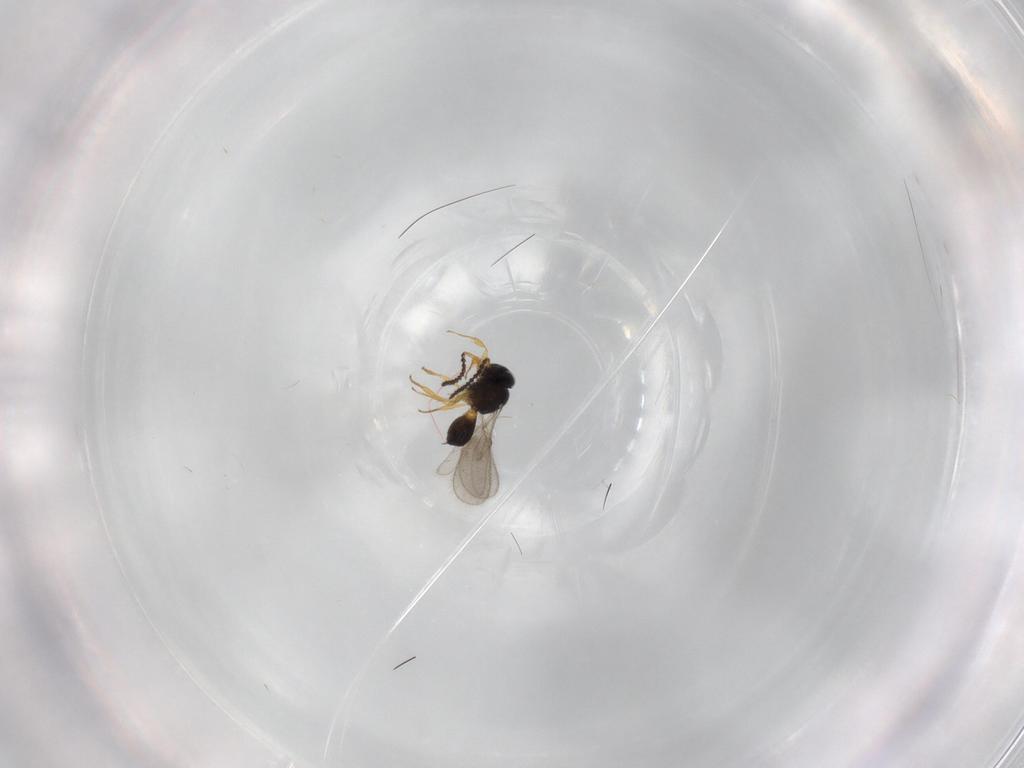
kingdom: Animalia
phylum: Arthropoda
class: Insecta
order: Hymenoptera
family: Scelionidae
